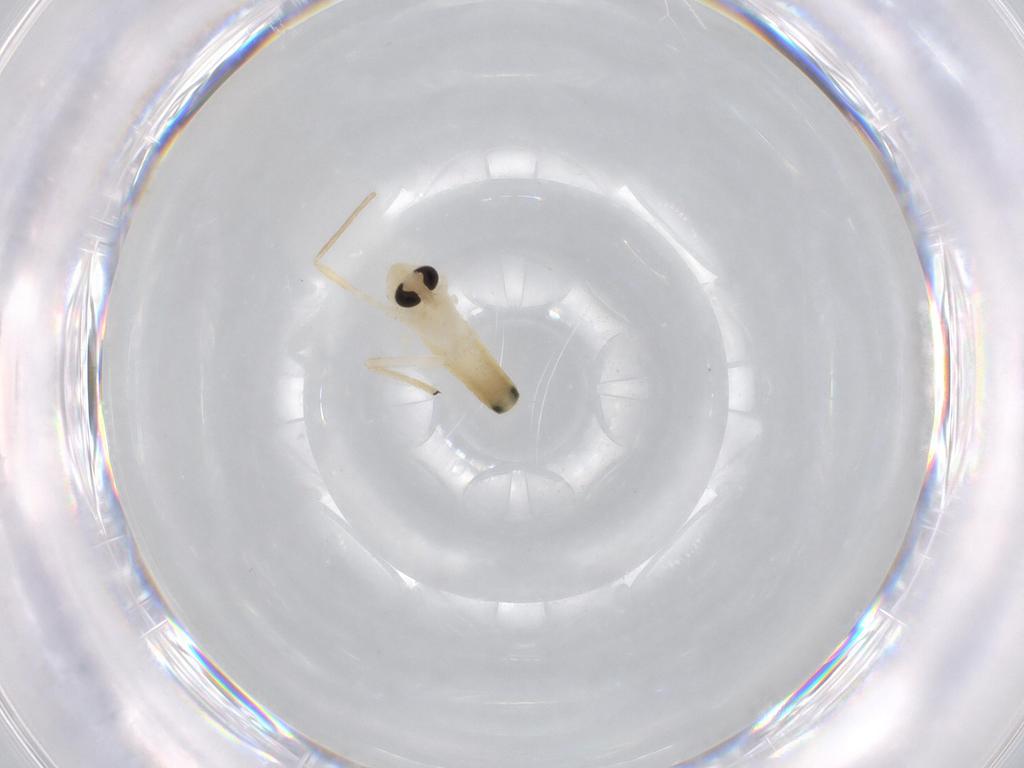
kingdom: Animalia
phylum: Arthropoda
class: Insecta
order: Diptera
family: Chironomidae
